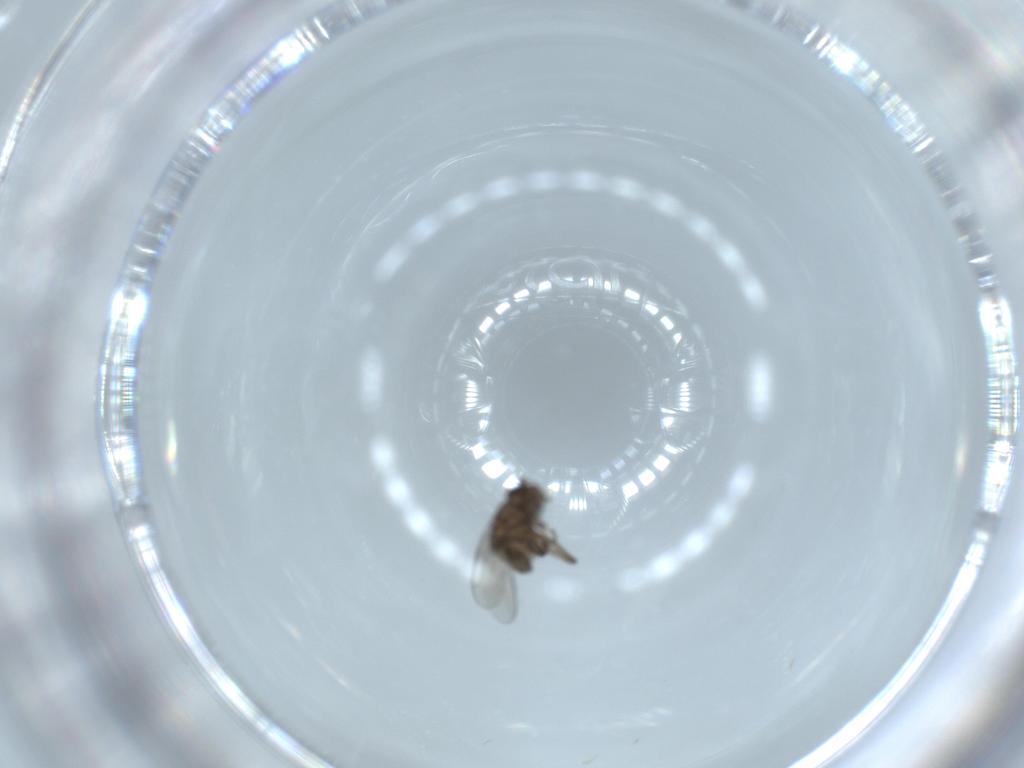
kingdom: Animalia
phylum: Arthropoda
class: Insecta
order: Diptera
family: Sphaeroceridae
